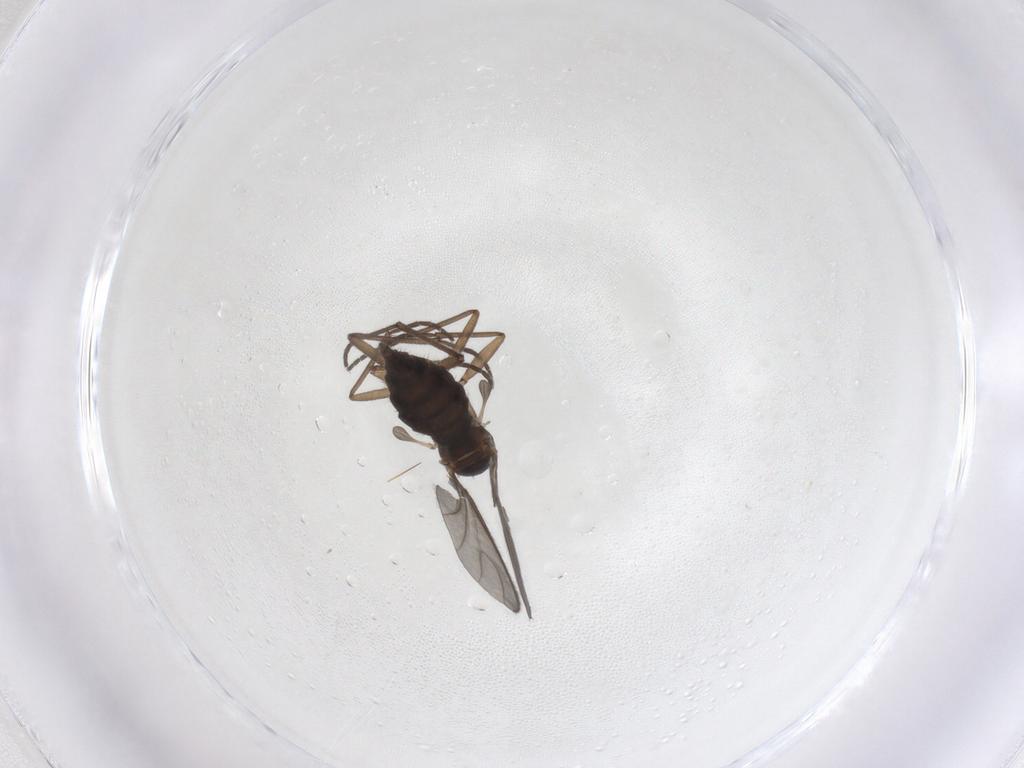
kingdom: Animalia
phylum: Arthropoda
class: Insecta
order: Diptera
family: Sciaridae
